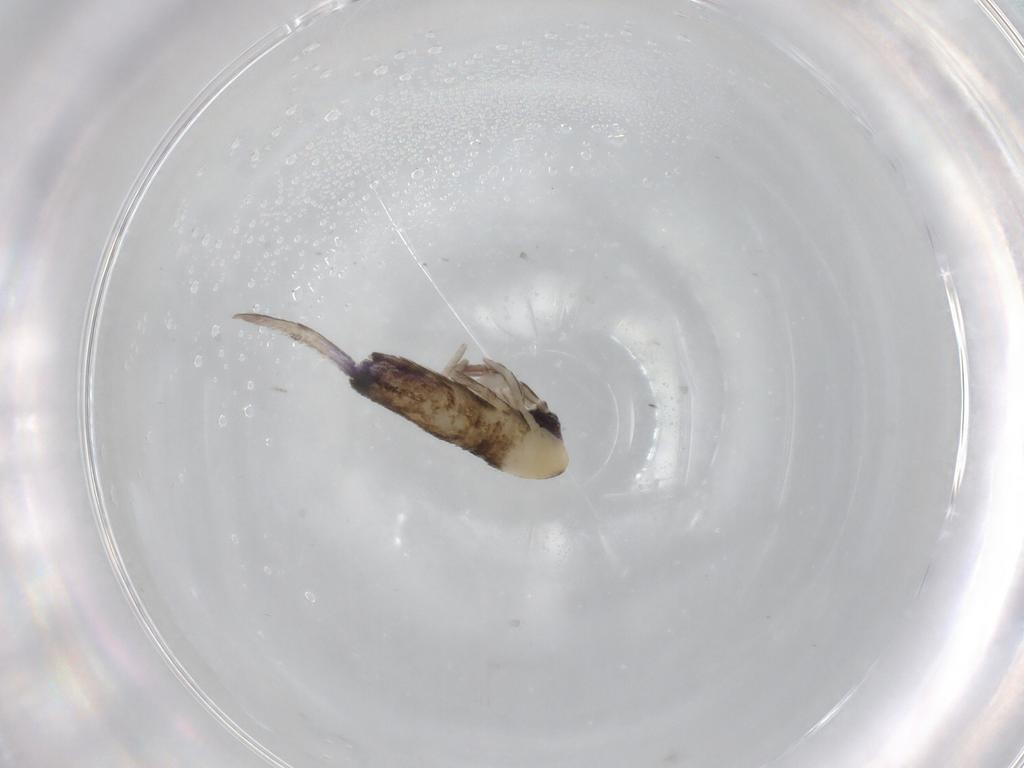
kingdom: Animalia
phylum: Arthropoda
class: Collembola
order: Entomobryomorpha
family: Entomobryidae
